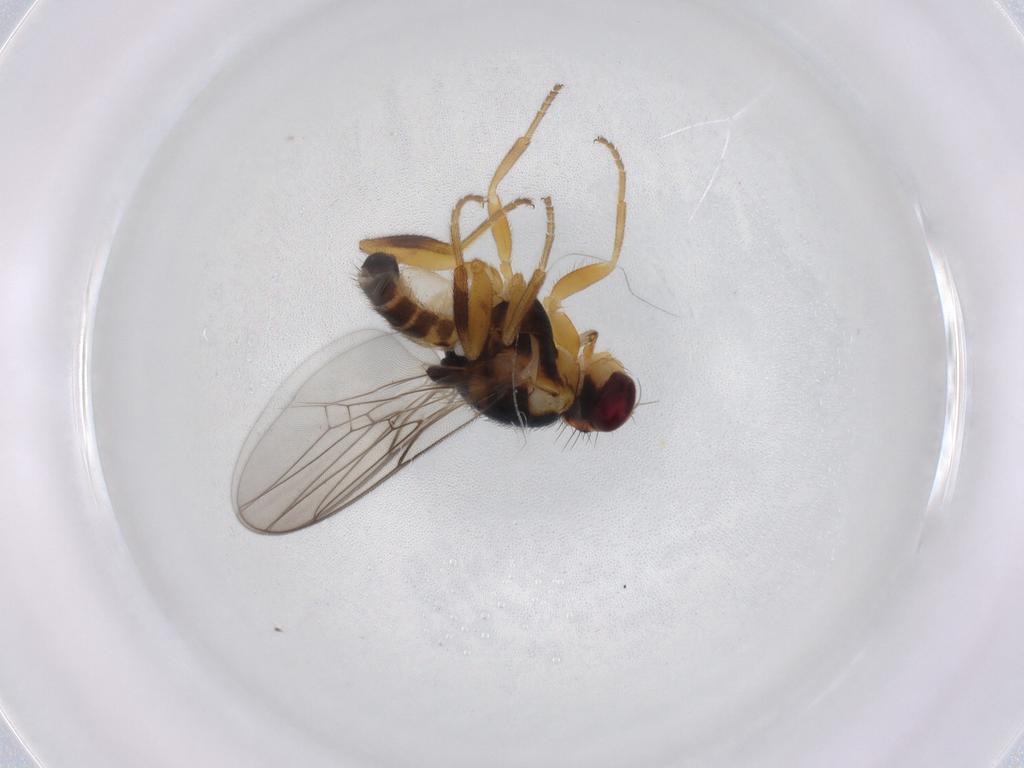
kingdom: Animalia
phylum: Arthropoda
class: Insecta
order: Diptera
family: Chloropidae
